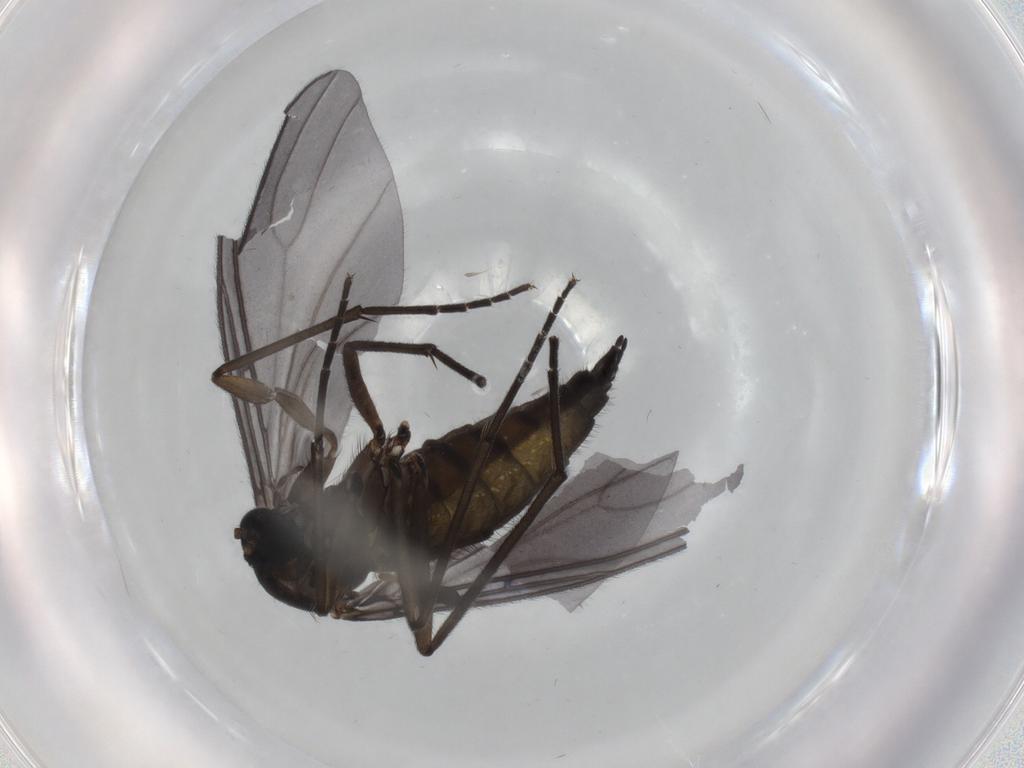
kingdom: Animalia
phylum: Arthropoda
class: Insecta
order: Diptera
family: Sciaridae
